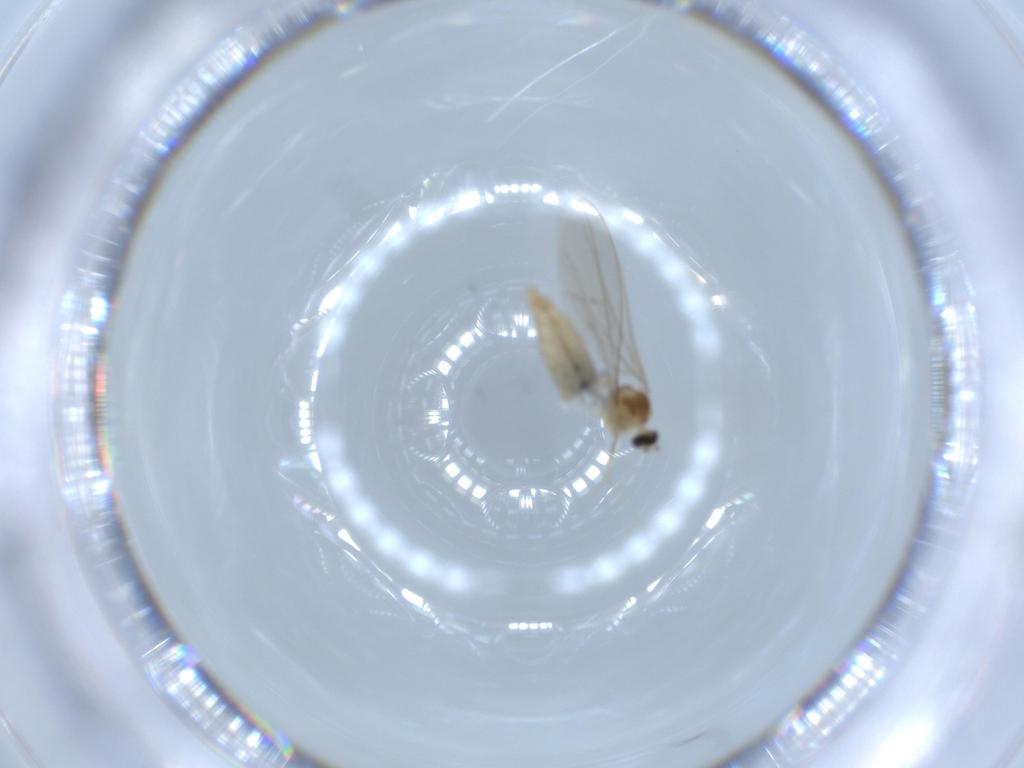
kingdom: Animalia
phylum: Arthropoda
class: Insecta
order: Diptera
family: Cecidomyiidae
